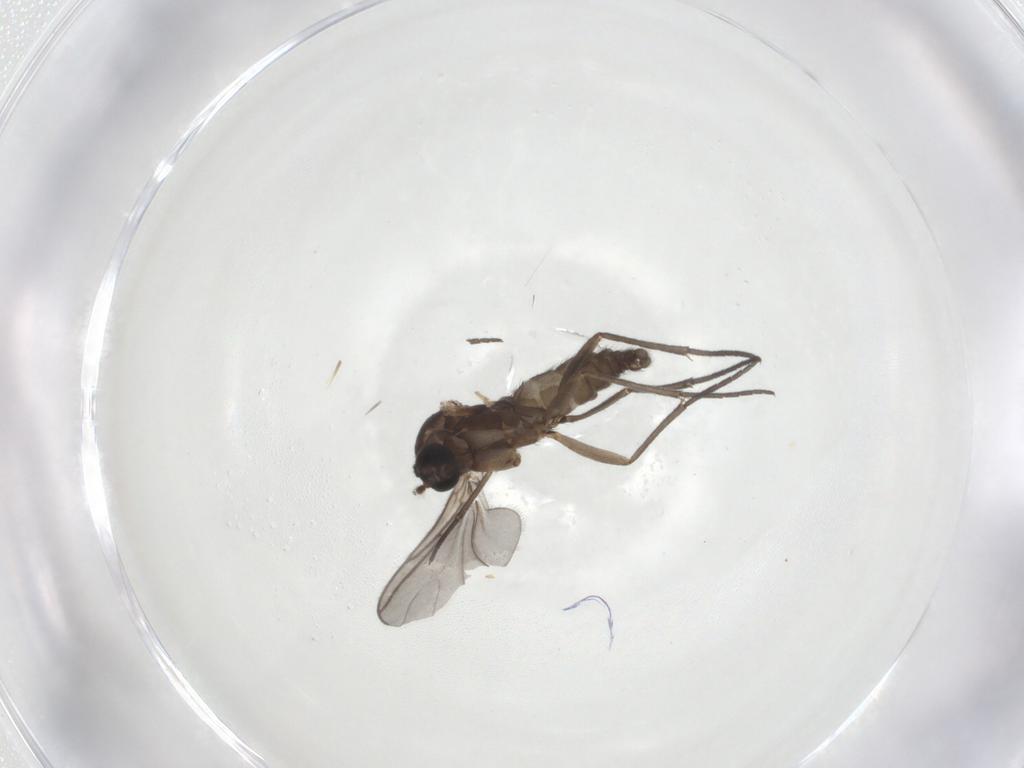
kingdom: Animalia
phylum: Arthropoda
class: Insecta
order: Diptera
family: Sciaridae
